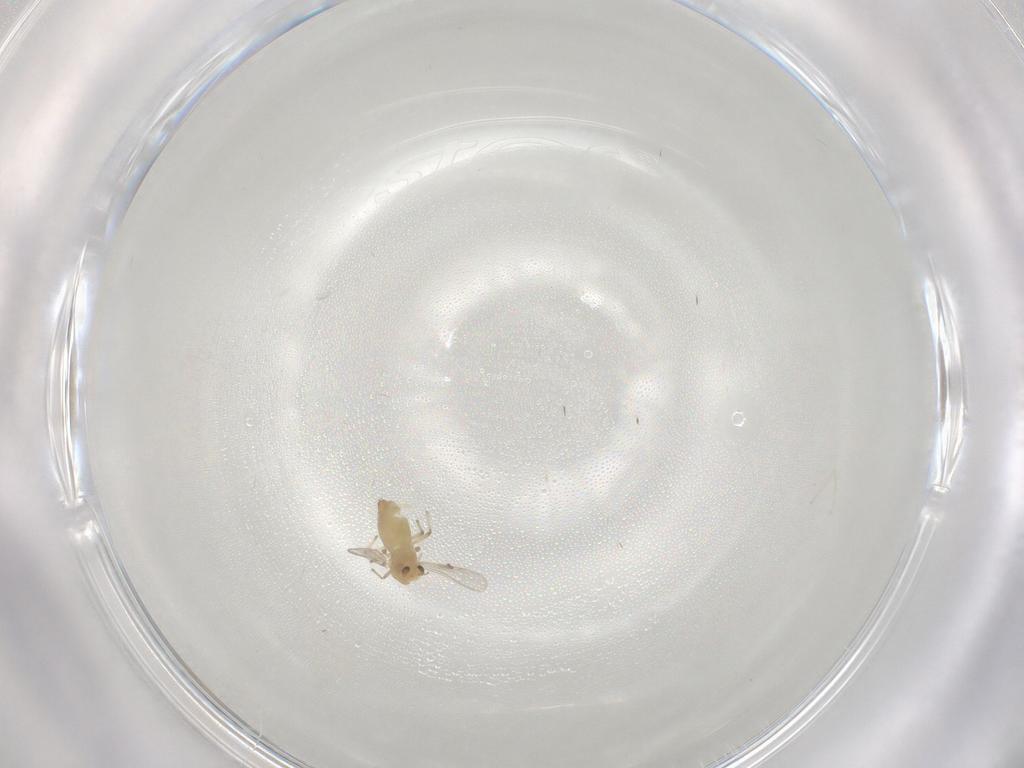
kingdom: Animalia
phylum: Arthropoda
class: Insecta
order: Diptera
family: Chironomidae
